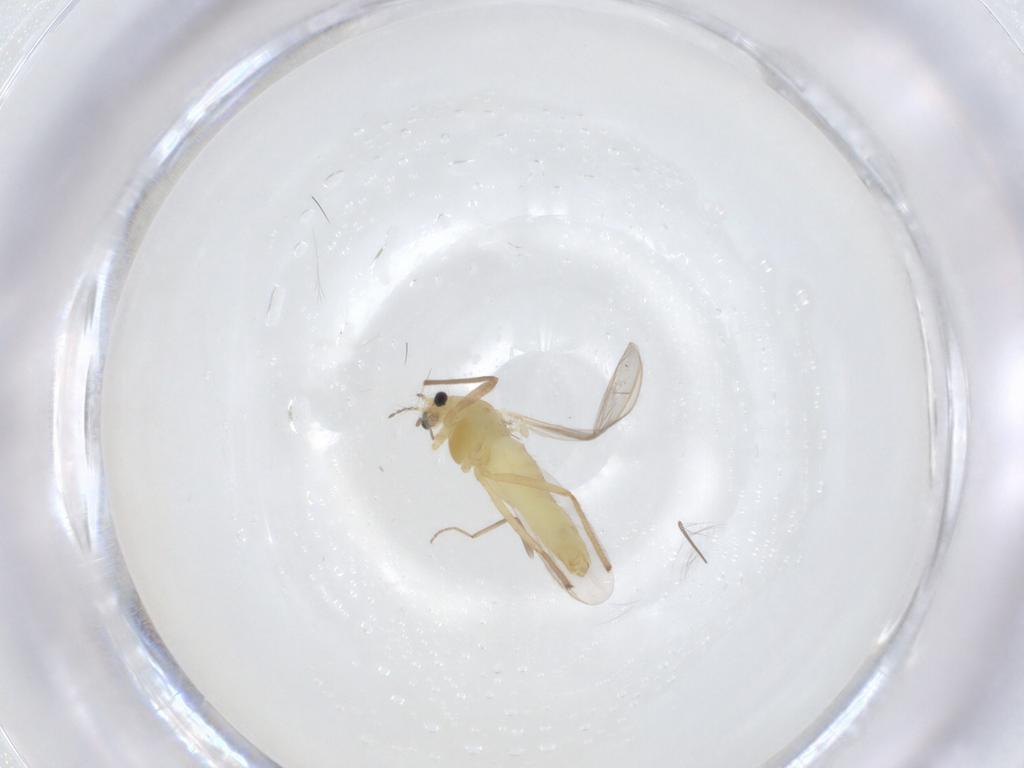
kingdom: Animalia
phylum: Arthropoda
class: Insecta
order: Diptera
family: Chironomidae
